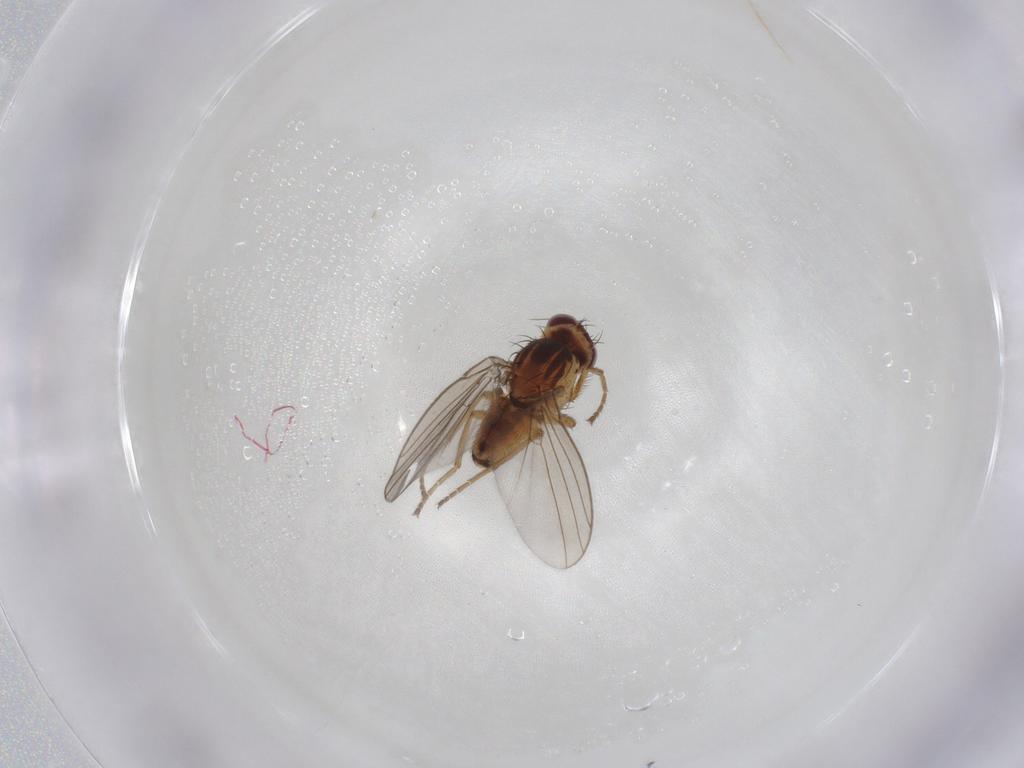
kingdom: Animalia
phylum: Arthropoda
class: Insecta
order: Diptera
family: Agromyzidae
